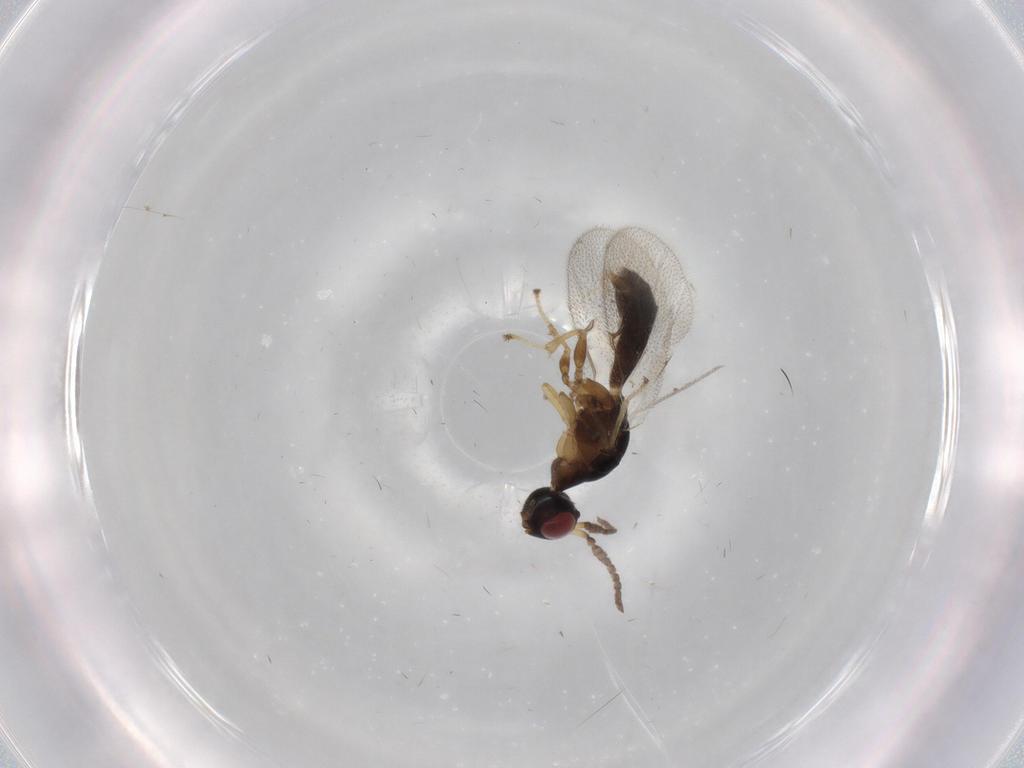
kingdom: Animalia
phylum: Arthropoda
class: Insecta
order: Hymenoptera
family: Agaonidae
